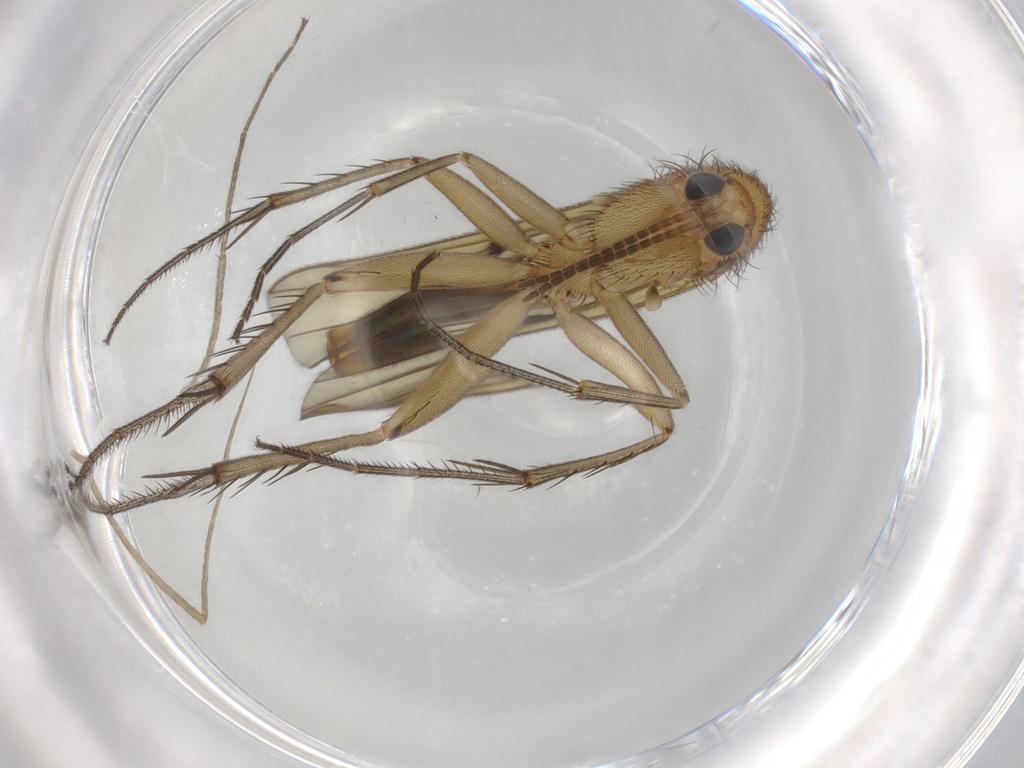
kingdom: Animalia
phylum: Arthropoda
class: Insecta
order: Diptera
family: Mycetophilidae
